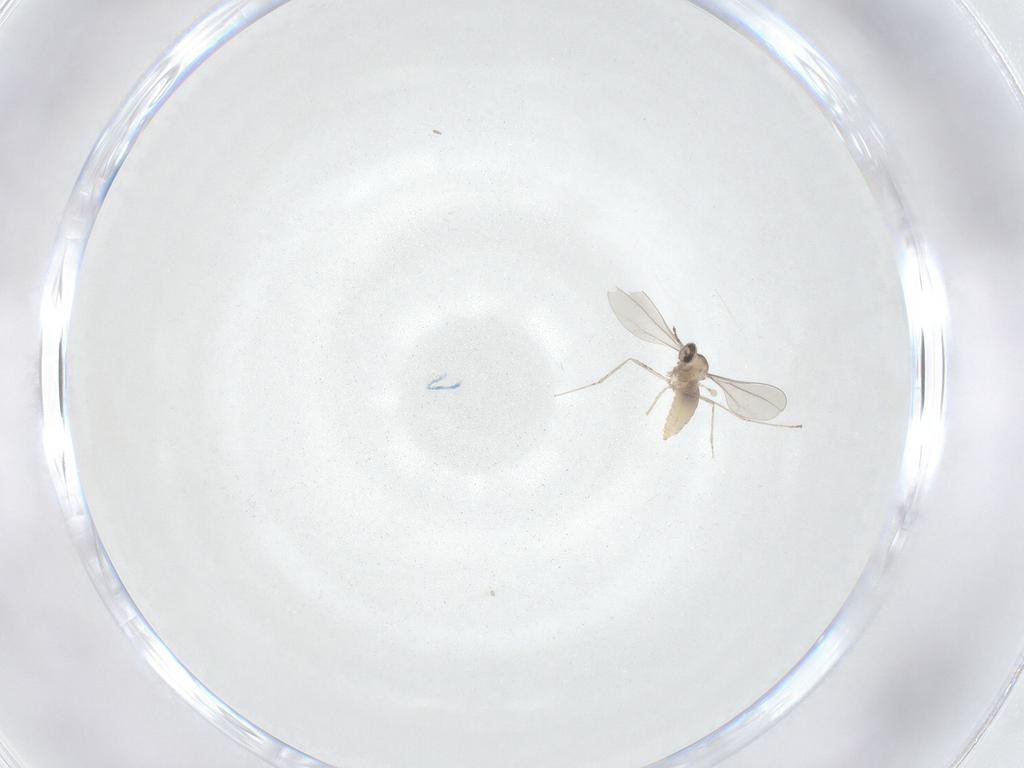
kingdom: Animalia
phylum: Arthropoda
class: Insecta
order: Diptera
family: Cecidomyiidae
